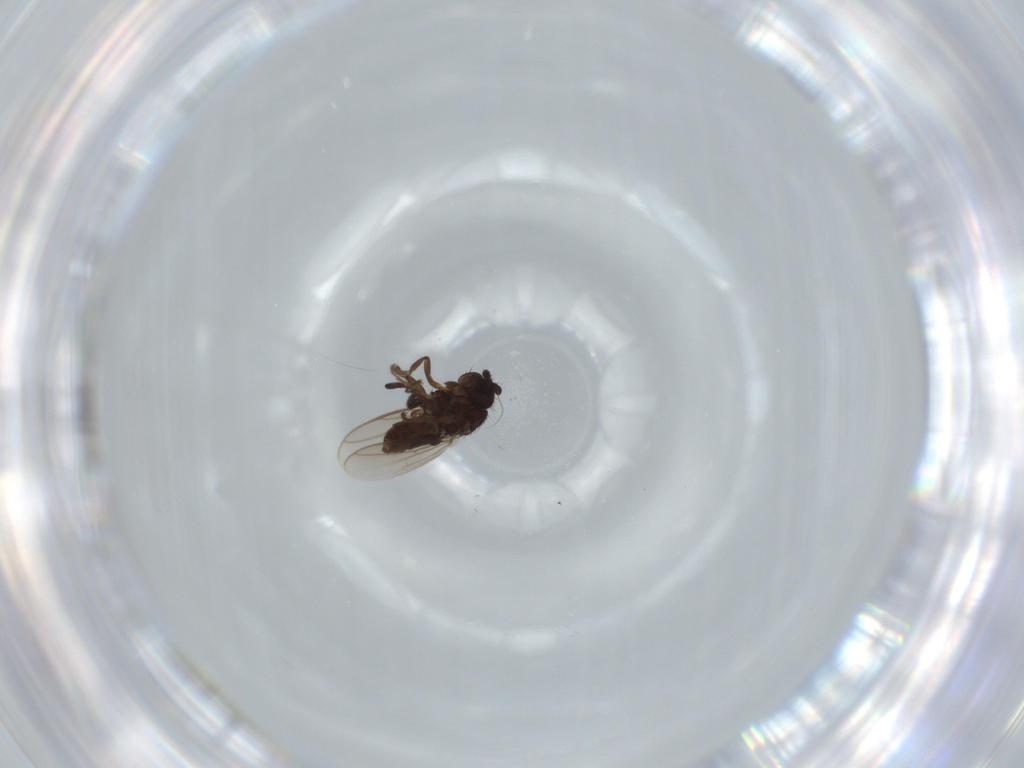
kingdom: Animalia
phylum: Arthropoda
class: Insecta
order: Diptera
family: Sphaeroceridae
